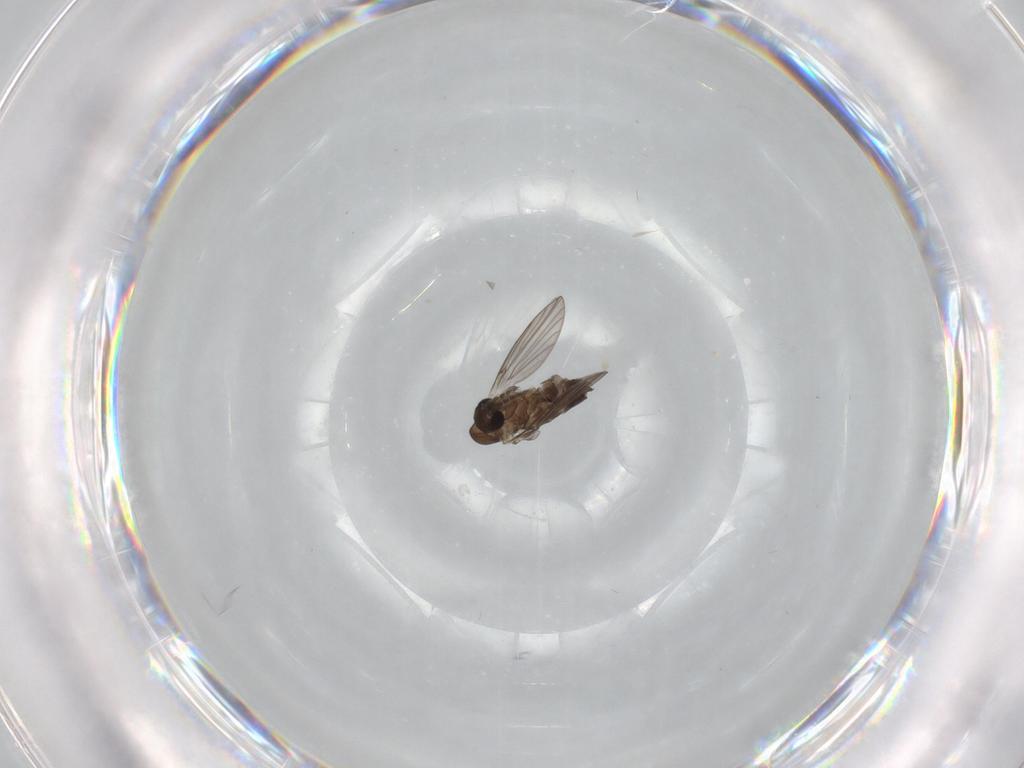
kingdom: Animalia
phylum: Arthropoda
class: Insecta
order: Diptera
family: Psychodidae
